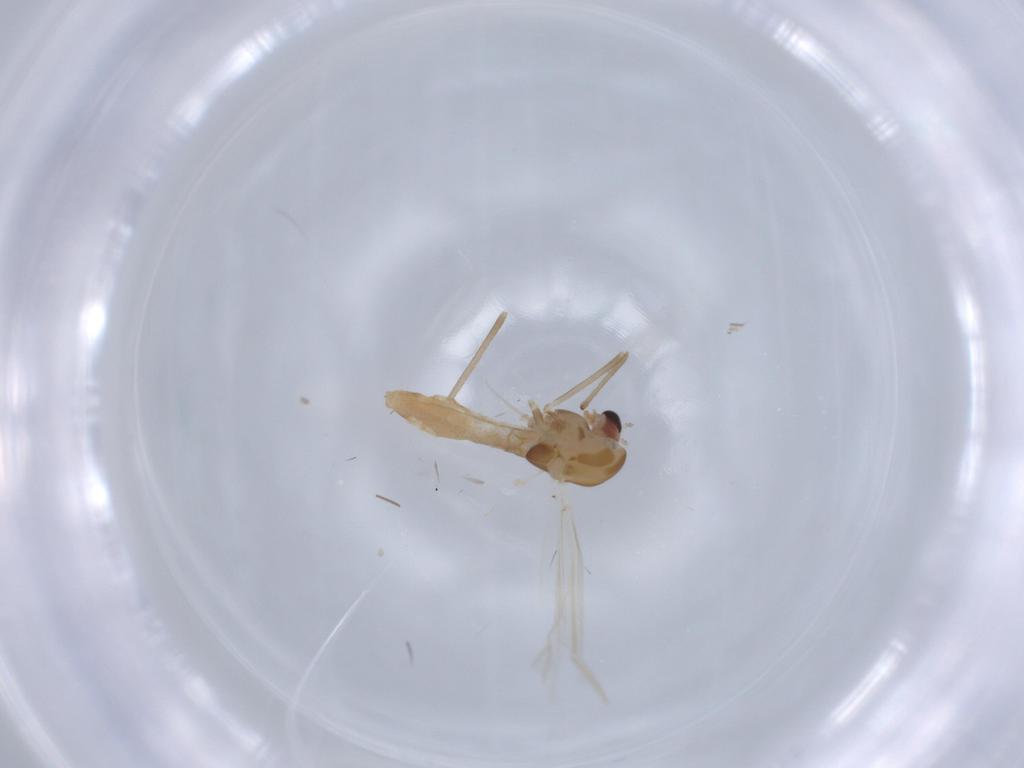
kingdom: Animalia
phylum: Arthropoda
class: Insecta
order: Diptera
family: Chironomidae
